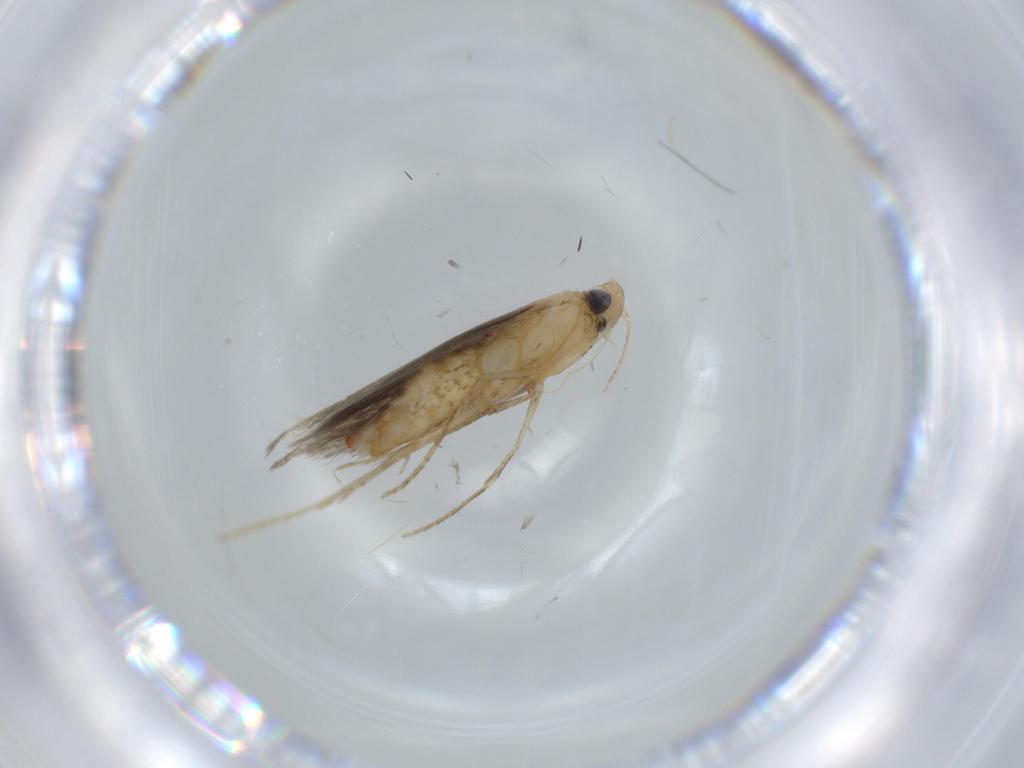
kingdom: Animalia
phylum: Arthropoda
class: Insecta
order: Lepidoptera
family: Tischeriidae
